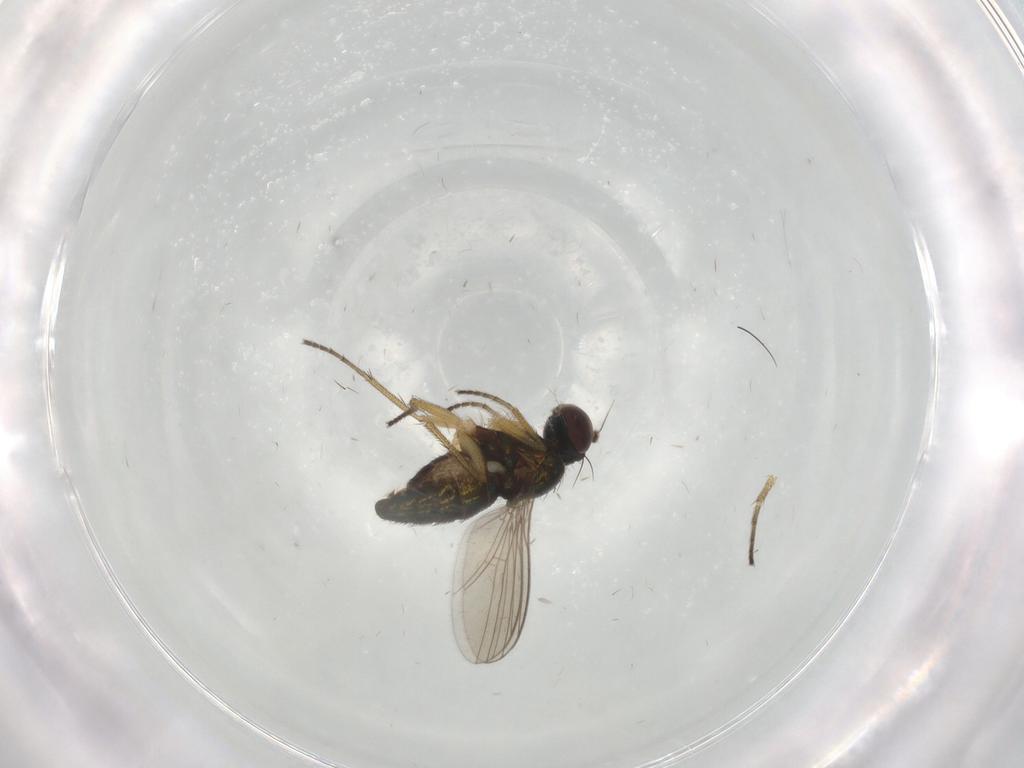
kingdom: Animalia
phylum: Arthropoda
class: Insecta
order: Diptera
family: Dolichopodidae
